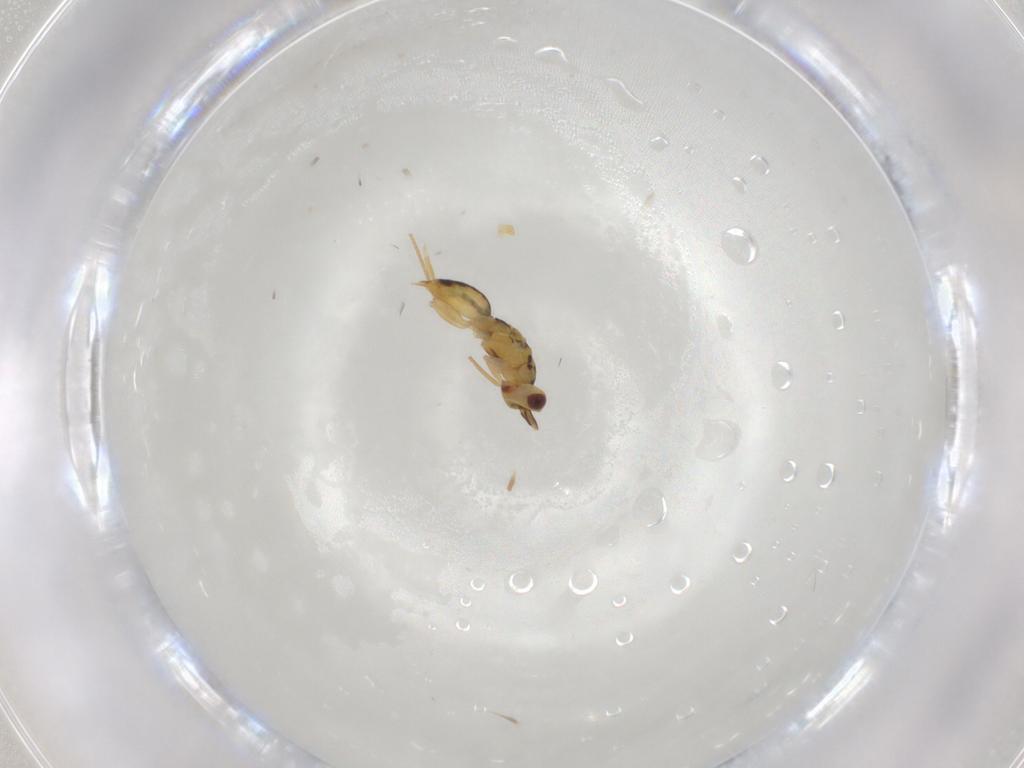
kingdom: Animalia
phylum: Arthropoda
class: Insecta
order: Hymenoptera
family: Eulophidae
